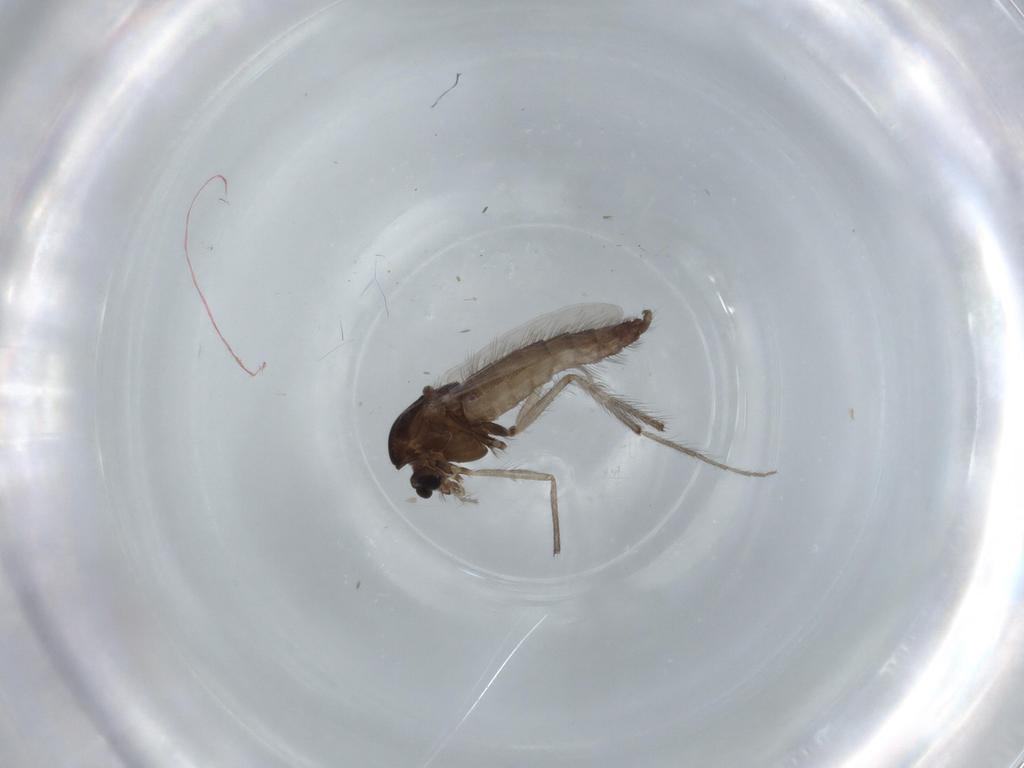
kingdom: Animalia
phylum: Arthropoda
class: Insecta
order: Diptera
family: Chironomidae
